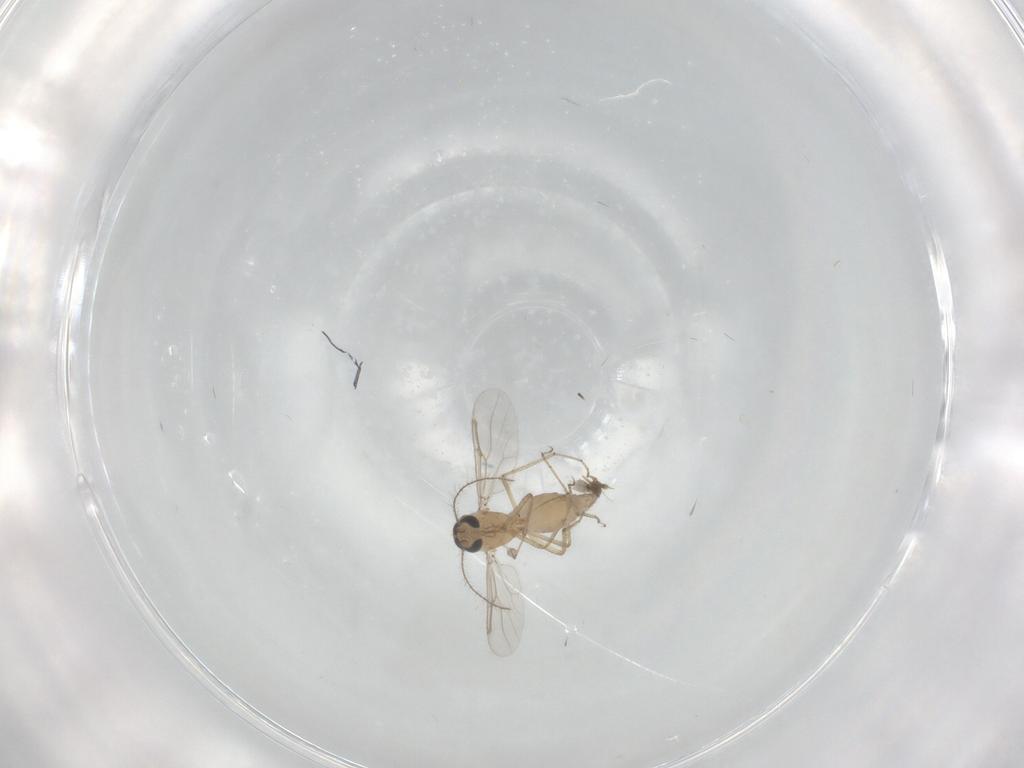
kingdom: Animalia
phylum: Arthropoda
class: Insecta
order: Diptera
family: Ceratopogonidae
